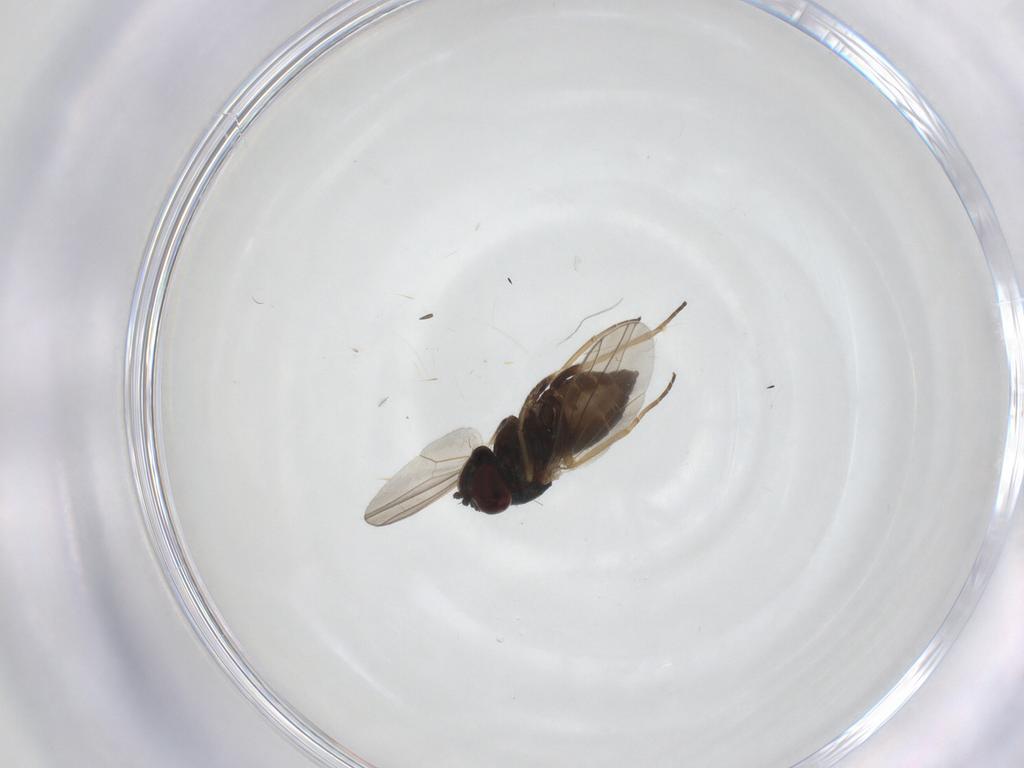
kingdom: Animalia
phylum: Arthropoda
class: Insecta
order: Diptera
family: Dolichopodidae
